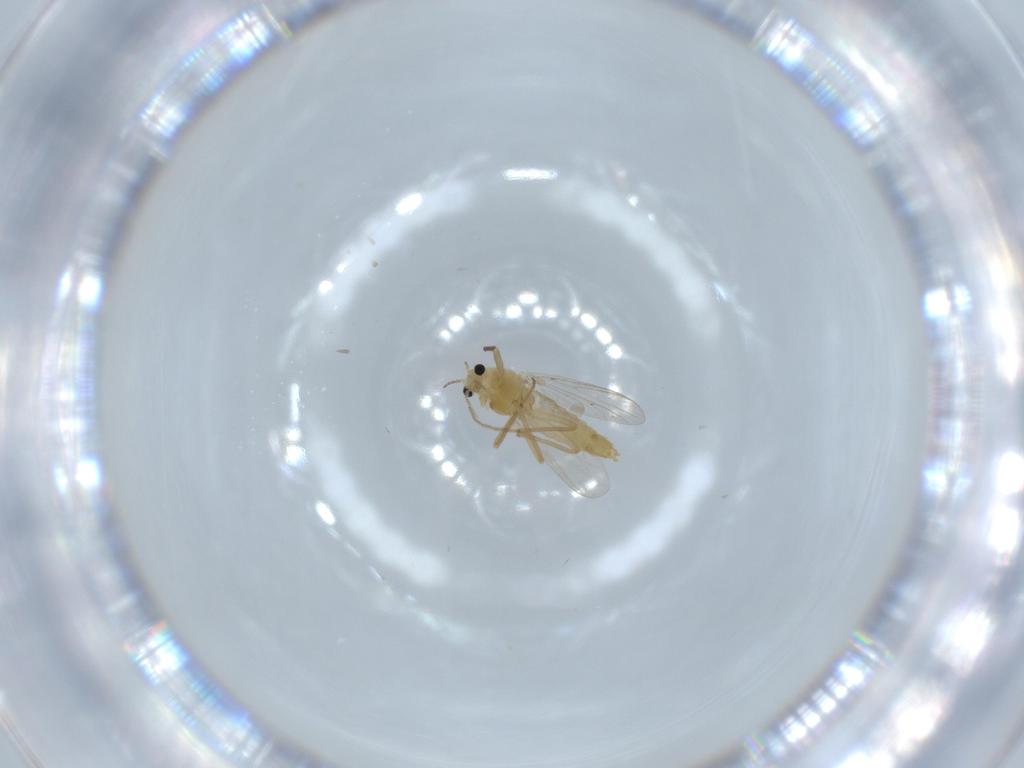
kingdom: Animalia
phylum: Arthropoda
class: Insecta
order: Diptera
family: Chironomidae
